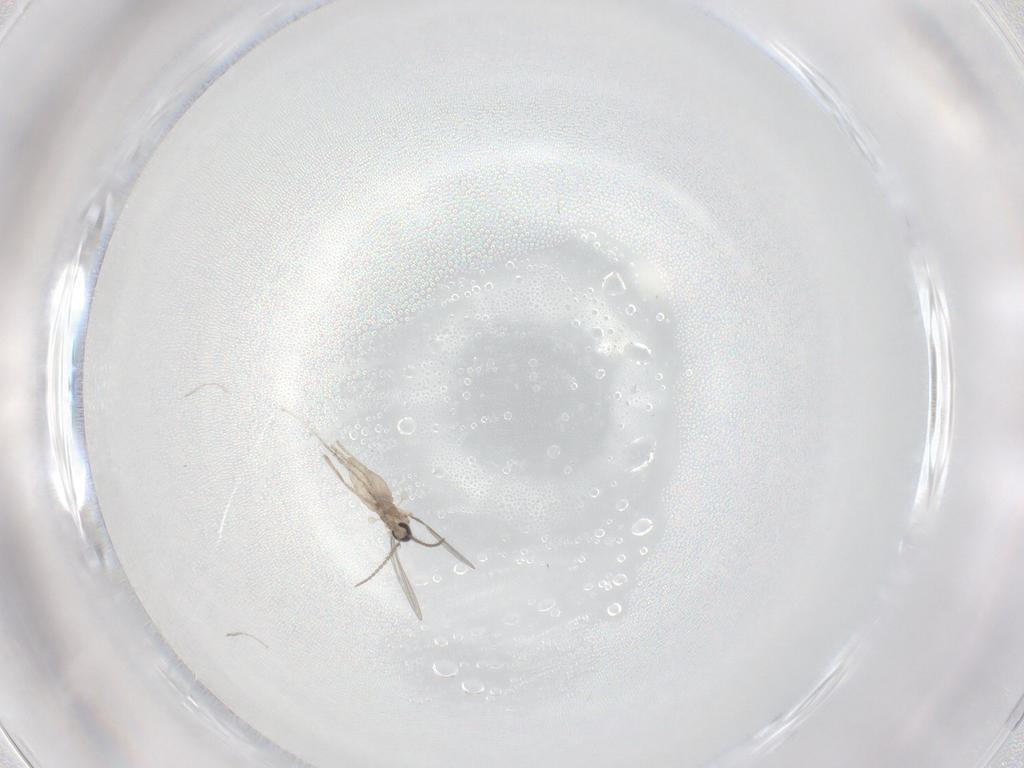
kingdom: Animalia
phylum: Arthropoda
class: Insecta
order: Diptera
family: Cecidomyiidae
